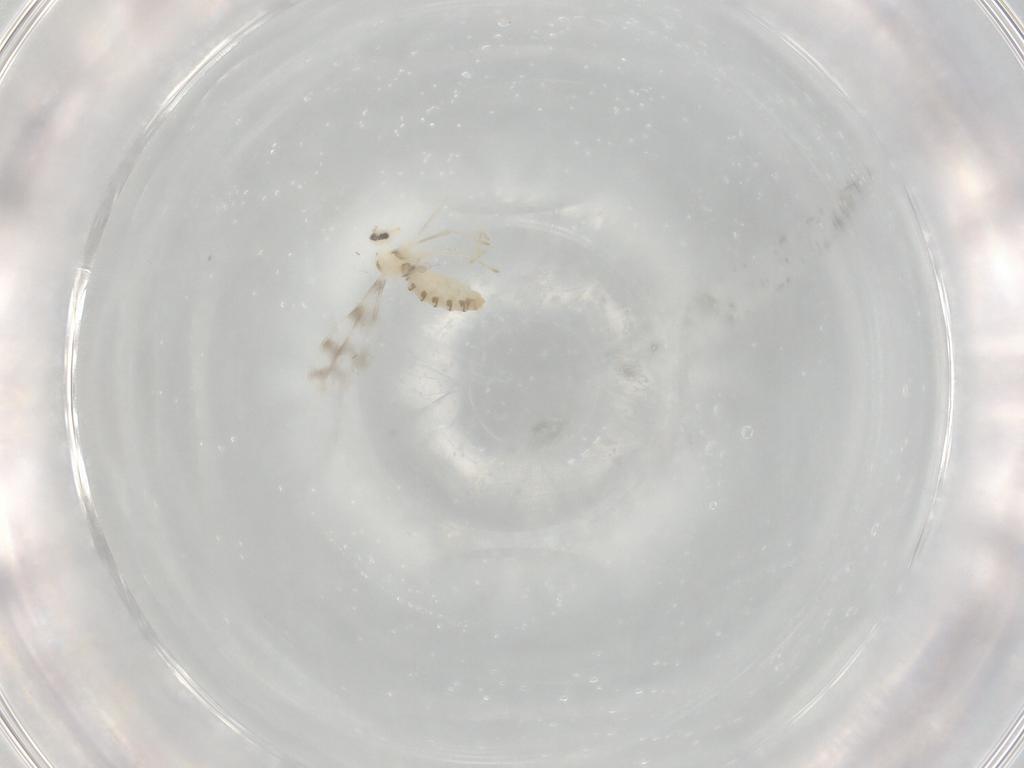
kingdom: Animalia
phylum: Arthropoda
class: Insecta
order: Diptera
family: Cecidomyiidae
